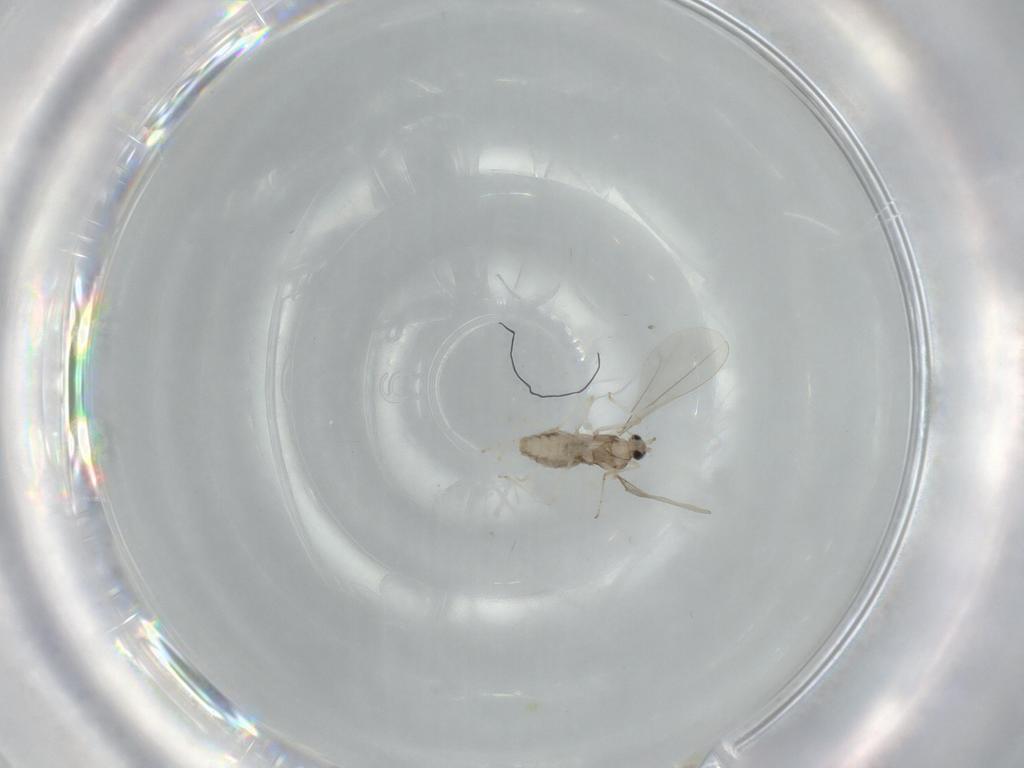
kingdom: Animalia
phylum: Arthropoda
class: Insecta
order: Diptera
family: Cecidomyiidae
